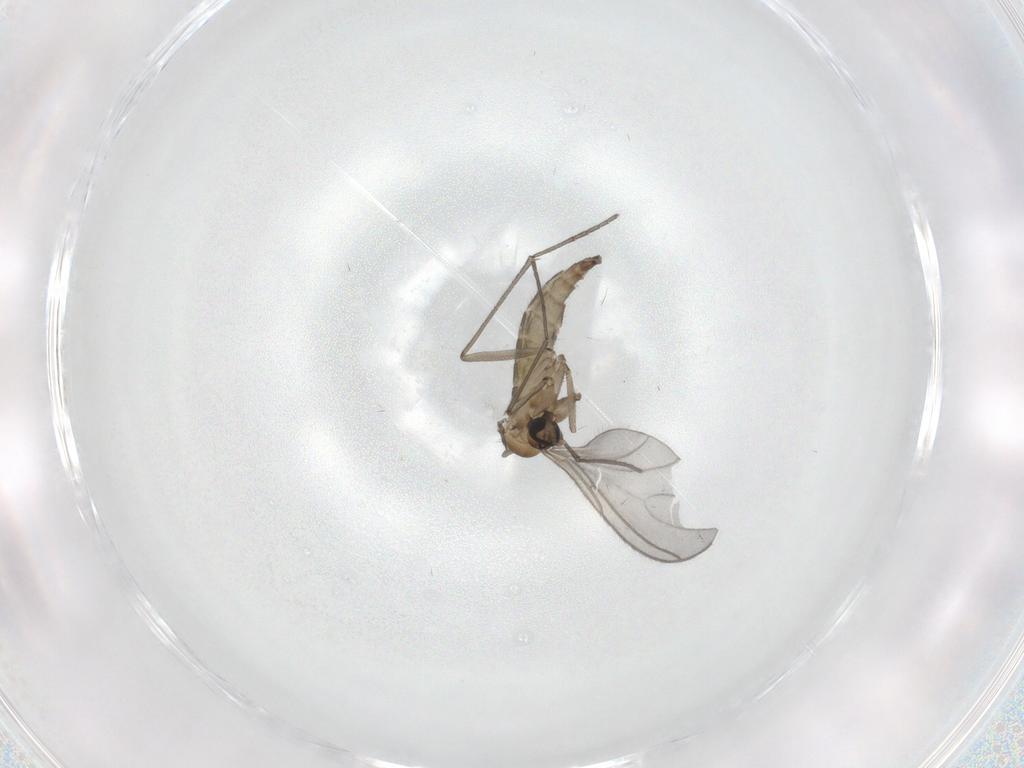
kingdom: Animalia
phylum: Arthropoda
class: Insecta
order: Diptera
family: Sciaridae
